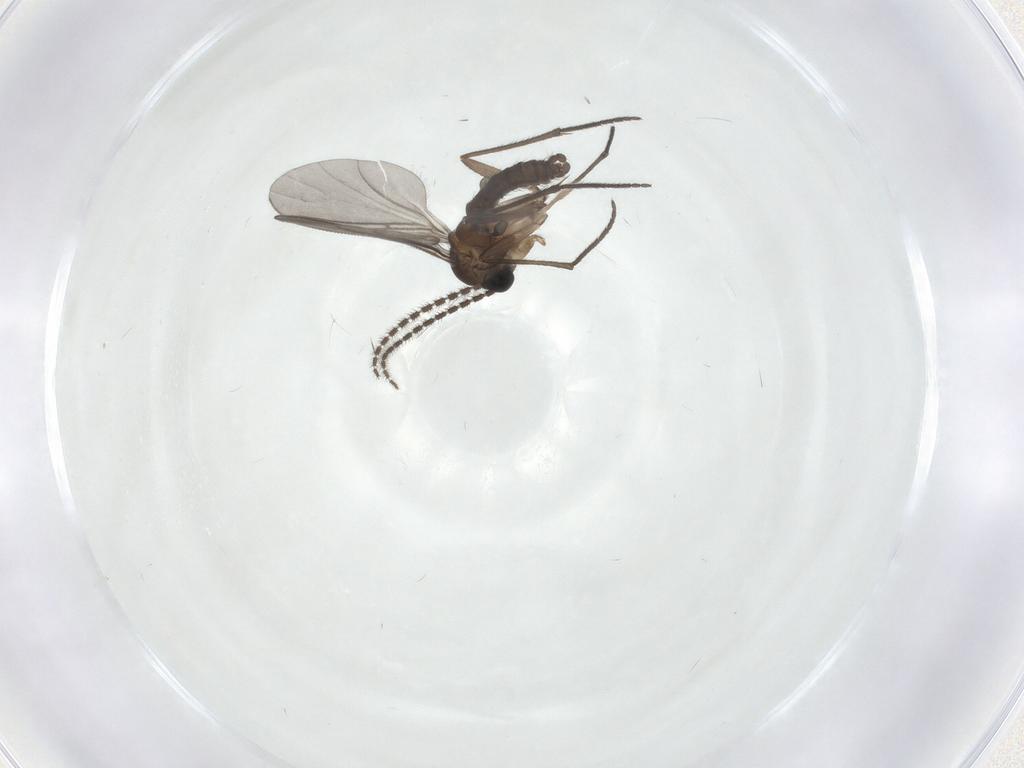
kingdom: Animalia
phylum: Arthropoda
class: Insecta
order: Diptera
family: Sciaridae
